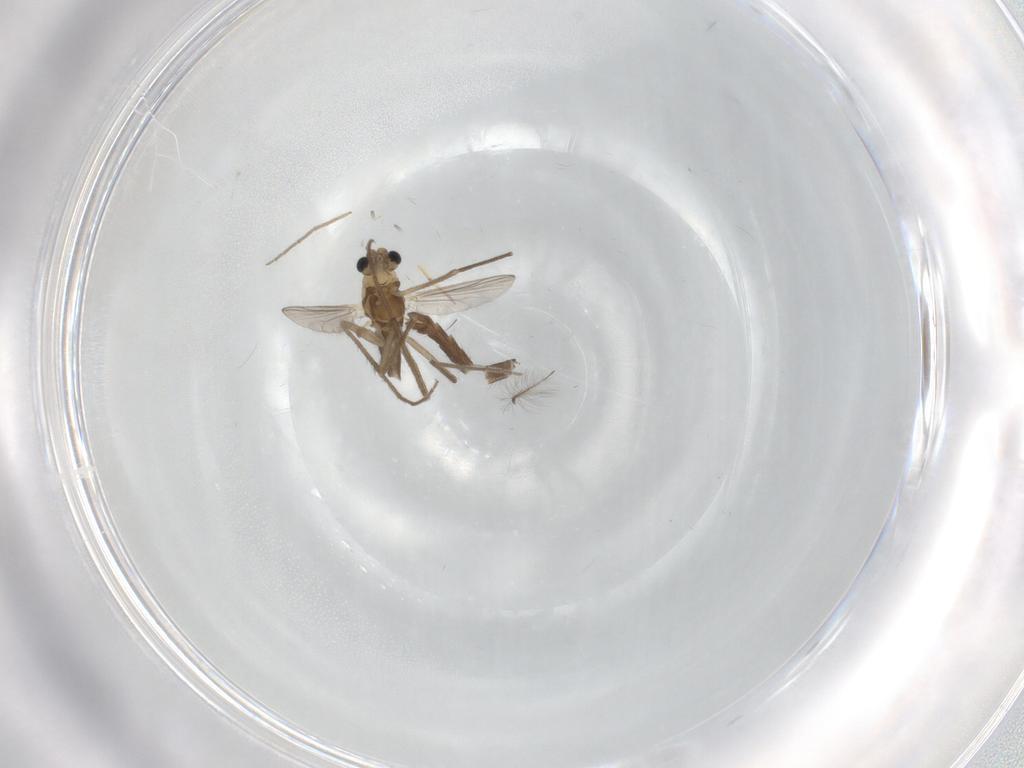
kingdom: Animalia
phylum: Arthropoda
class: Insecta
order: Diptera
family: Chironomidae
